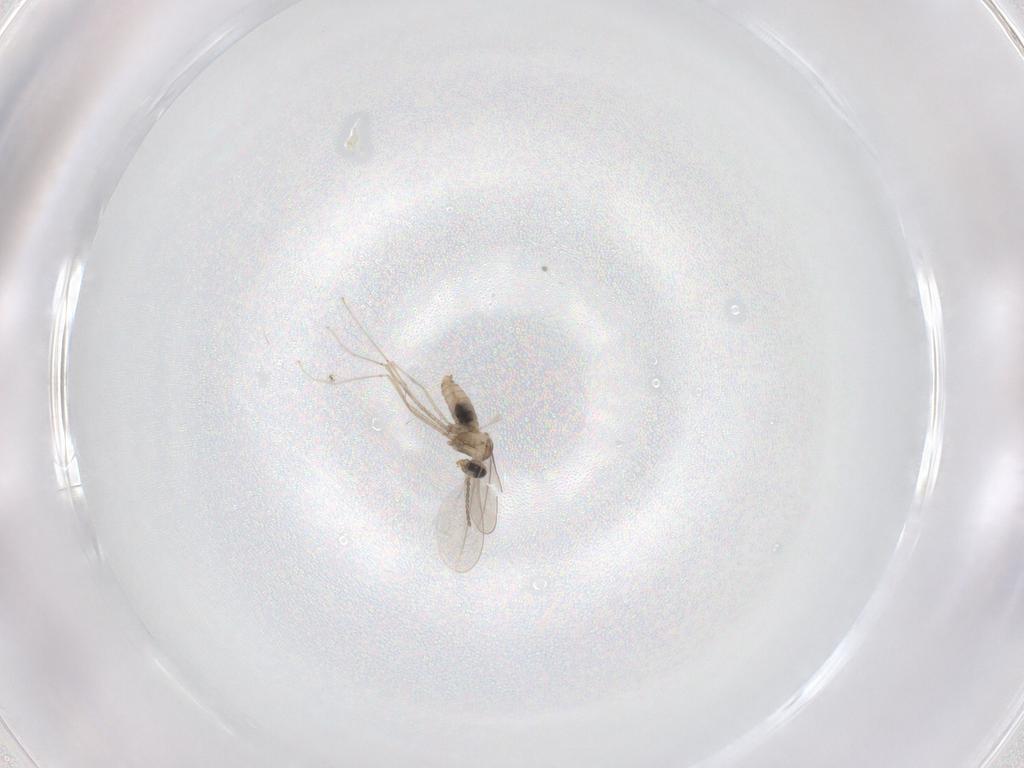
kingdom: Animalia
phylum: Arthropoda
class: Insecta
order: Diptera
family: Cecidomyiidae
